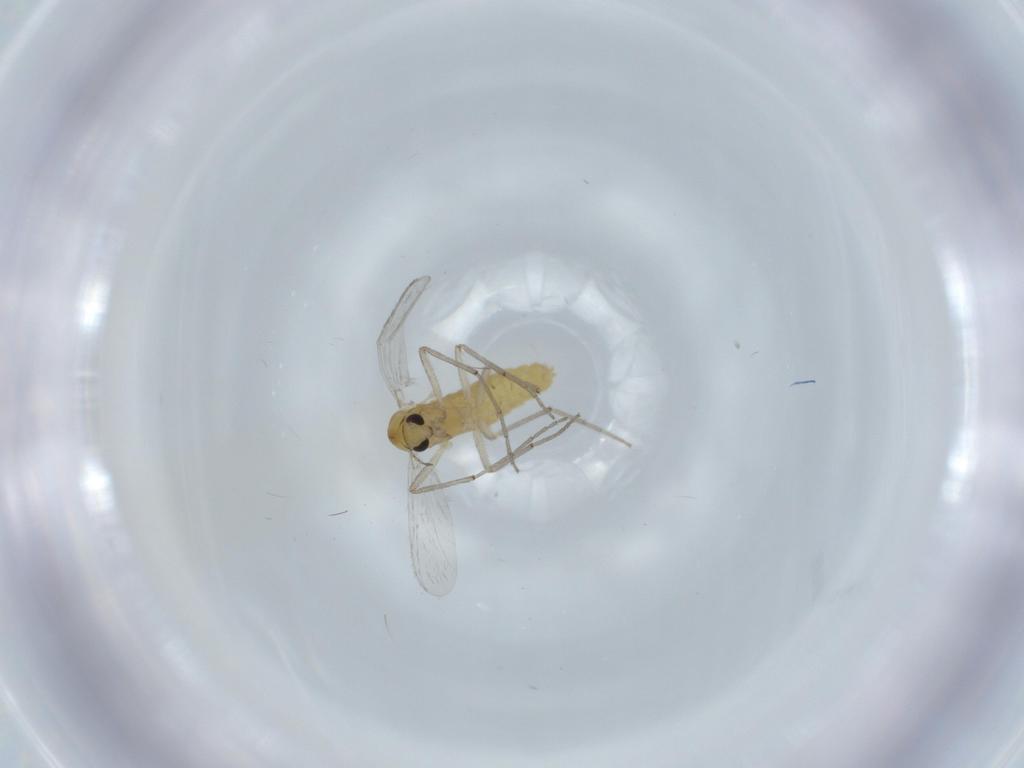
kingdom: Animalia
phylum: Arthropoda
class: Insecta
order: Diptera
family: Chironomidae
